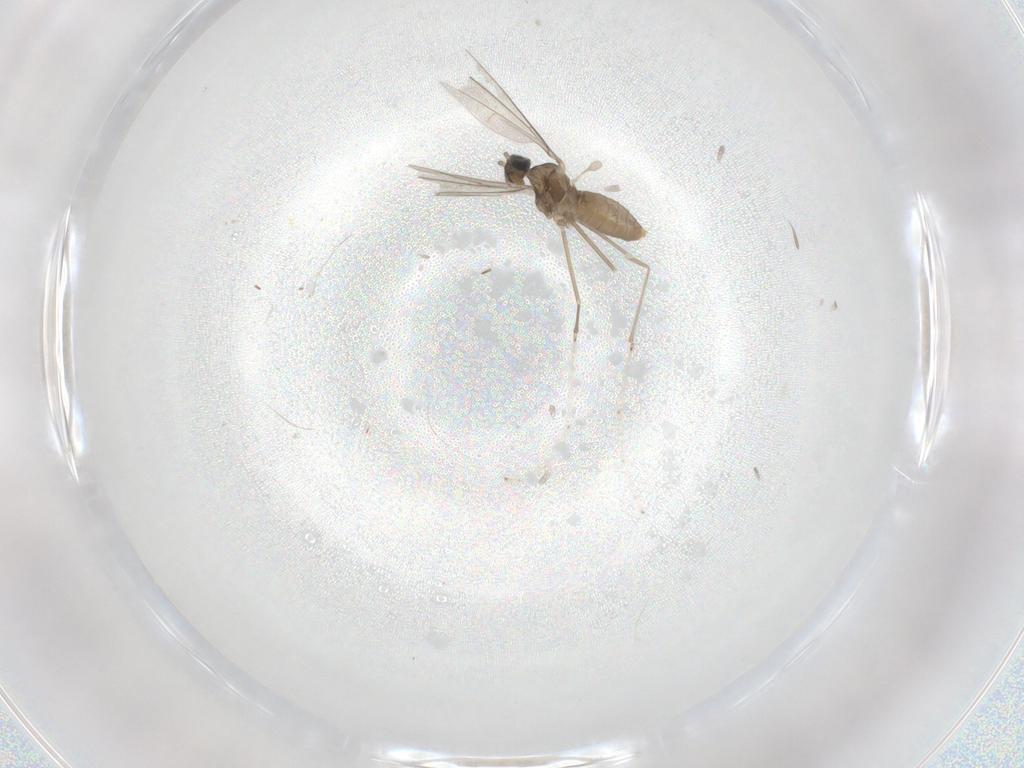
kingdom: Animalia
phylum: Arthropoda
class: Insecta
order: Diptera
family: Cecidomyiidae
